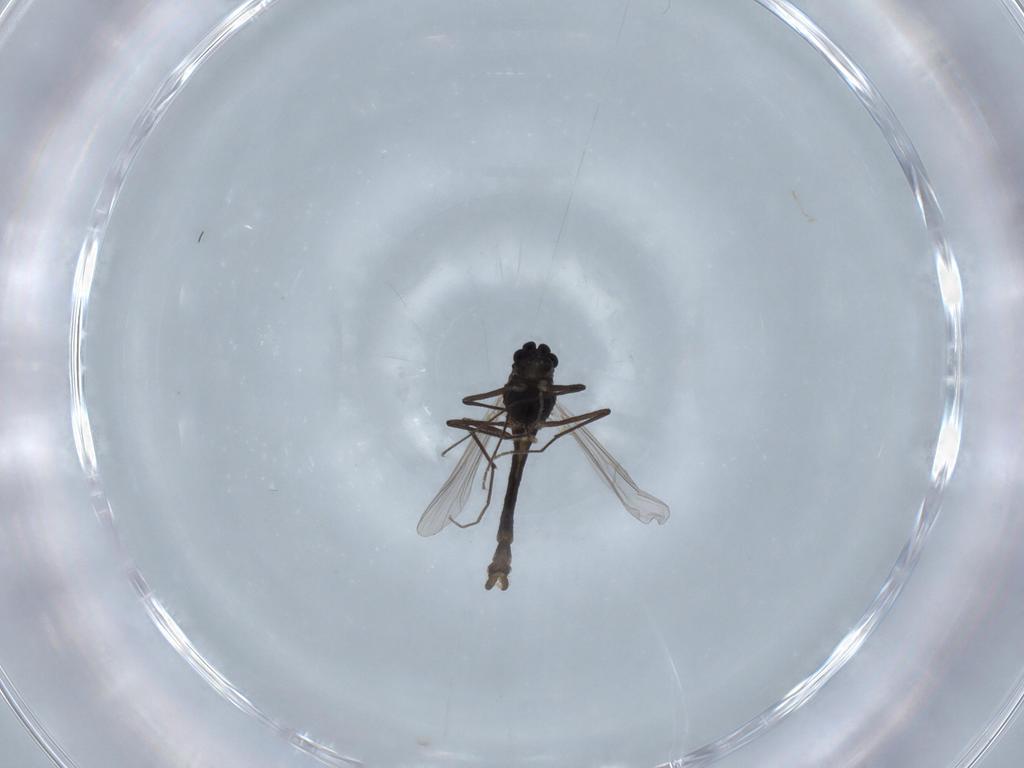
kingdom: Animalia
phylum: Arthropoda
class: Insecta
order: Diptera
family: Chironomidae
